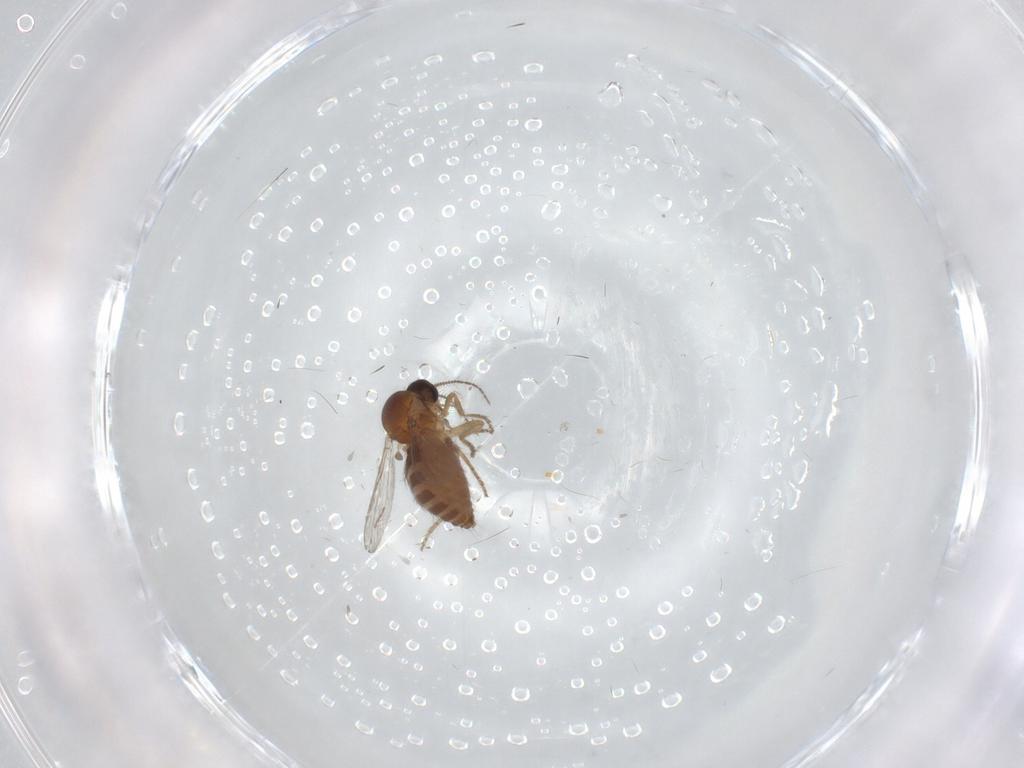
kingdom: Animalia
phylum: Arthropoda
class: Insecta
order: Diptera
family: Ceratopogonidae
